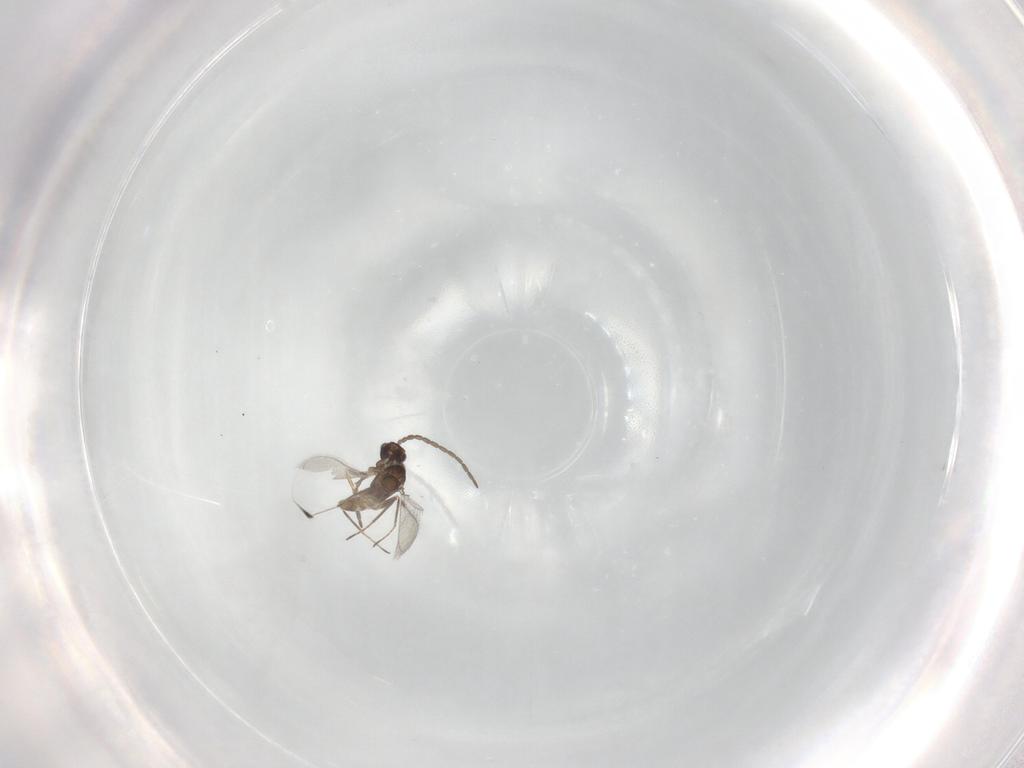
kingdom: Animalia
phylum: Arthropoda
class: Insecta
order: Hymenoptera
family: Mymaridae
